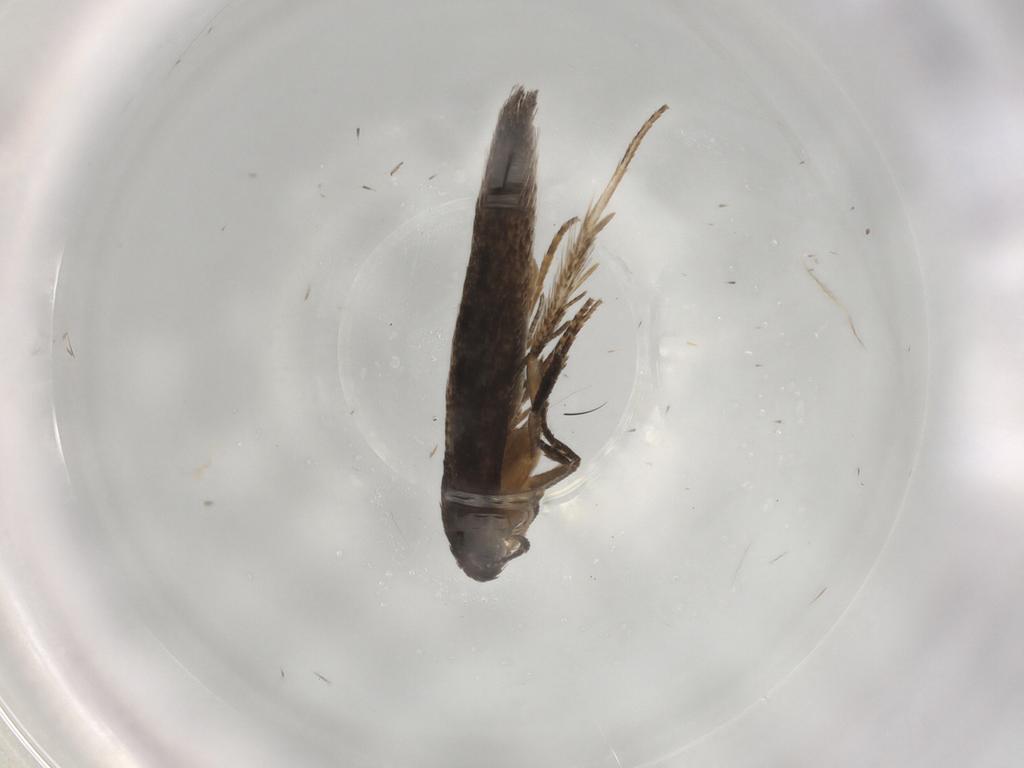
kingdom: Animalia
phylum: Arthropoda
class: Insecta
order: Lepidoptera
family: Cosmopterigidae
